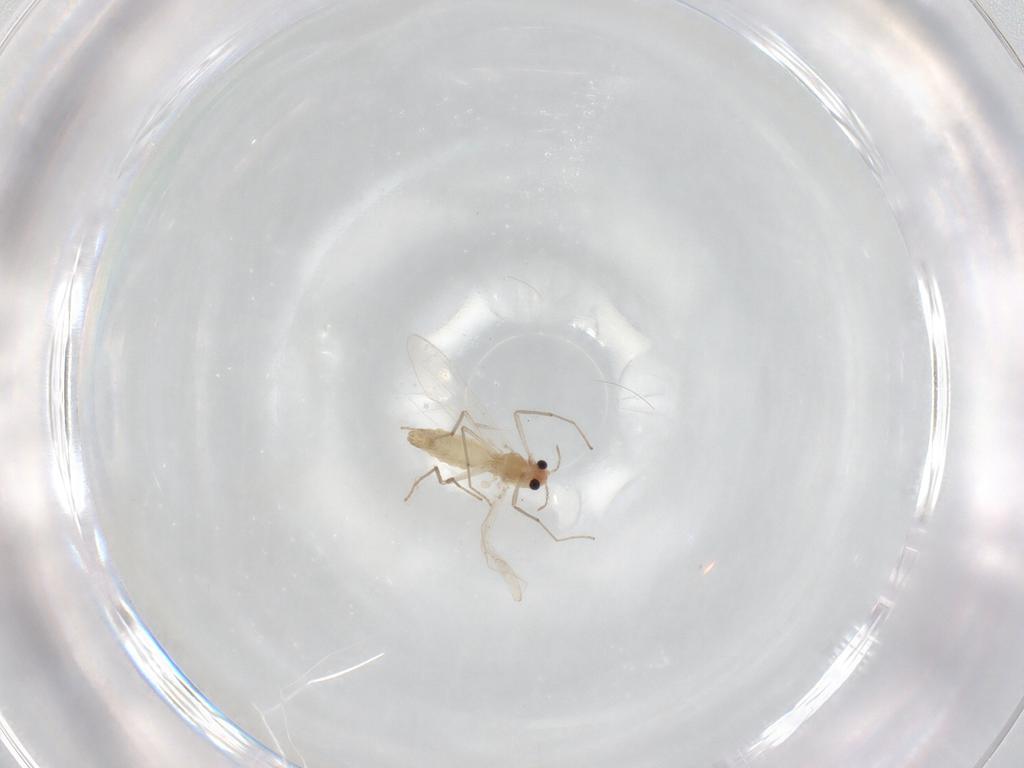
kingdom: Animalia
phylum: Arthropoda
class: Insecta
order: Diptera
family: Chironomidae
